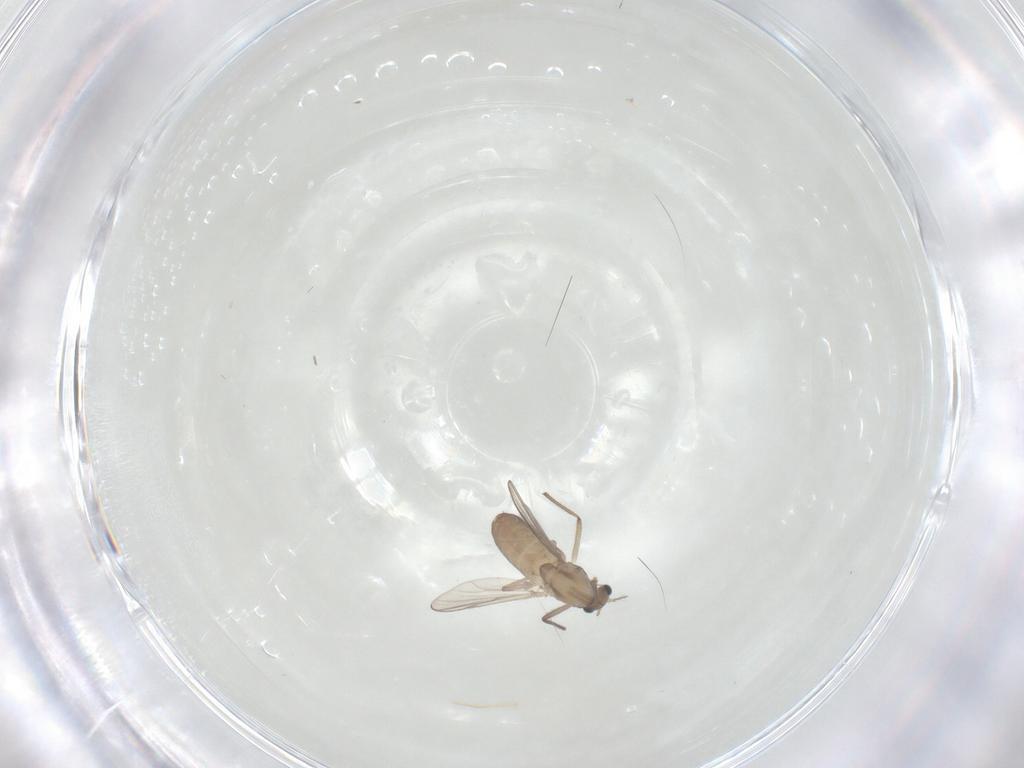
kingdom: Animalia
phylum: Arthropoda
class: Insecta
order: Diptera
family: Chironomidae
